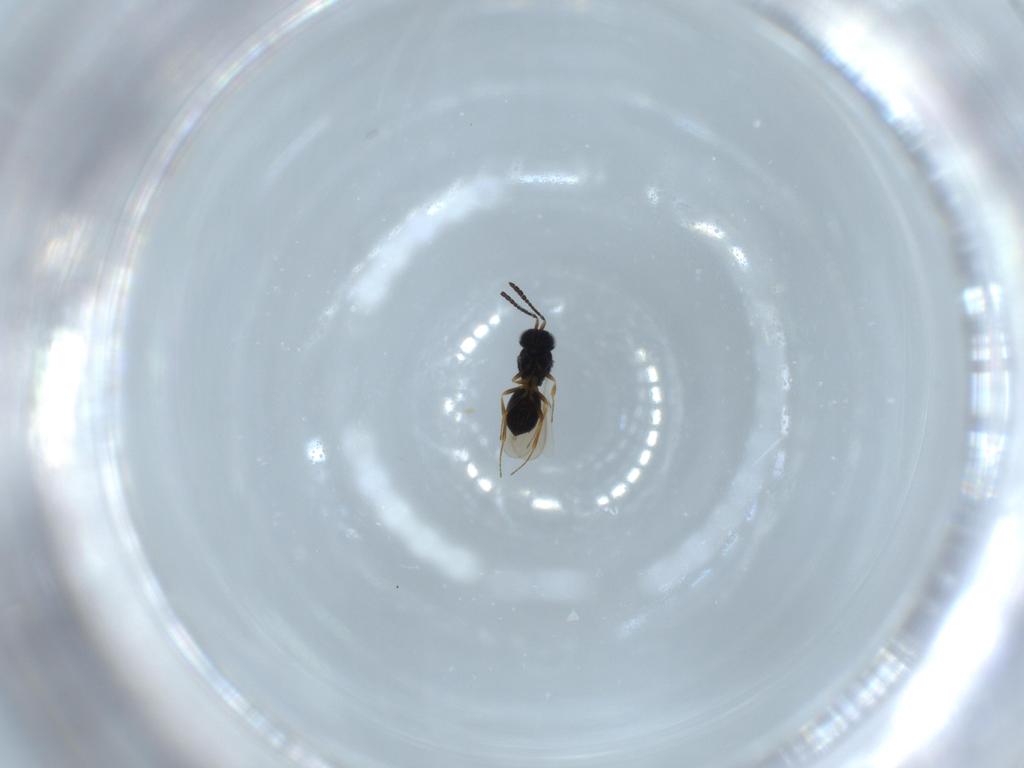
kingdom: Animalia
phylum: Arthropoda
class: Insecta
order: Hymenoptera
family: Scelionidae
